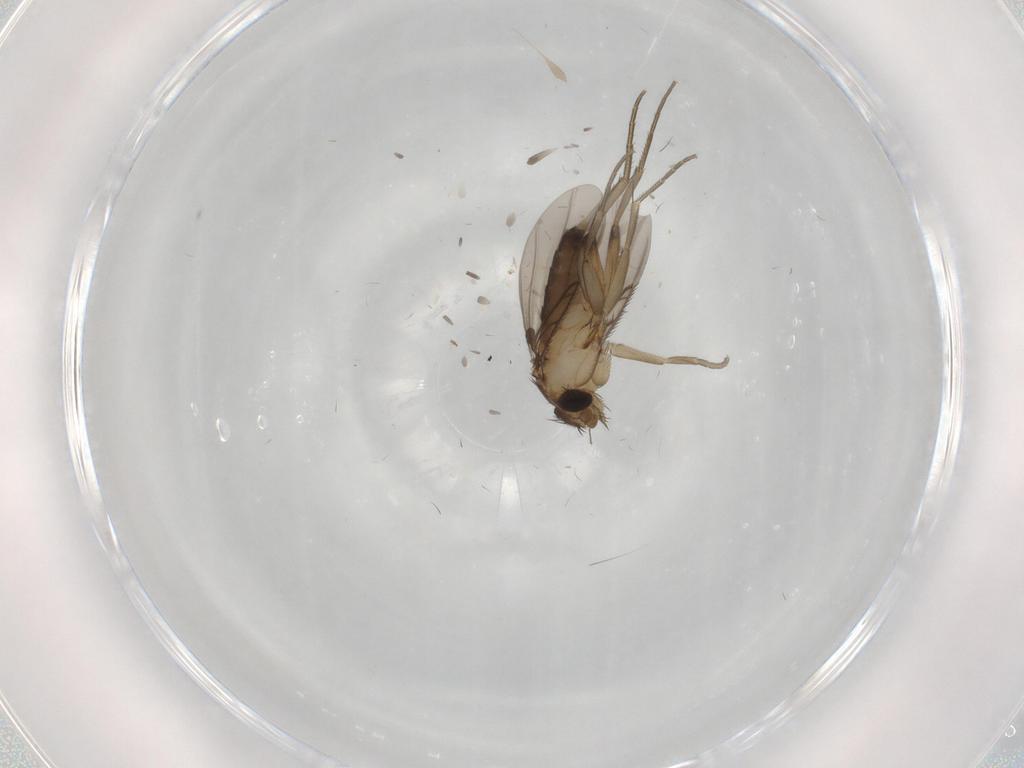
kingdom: Animalia
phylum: Arthropoda
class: Insecta
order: Diptera
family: Phoridae
